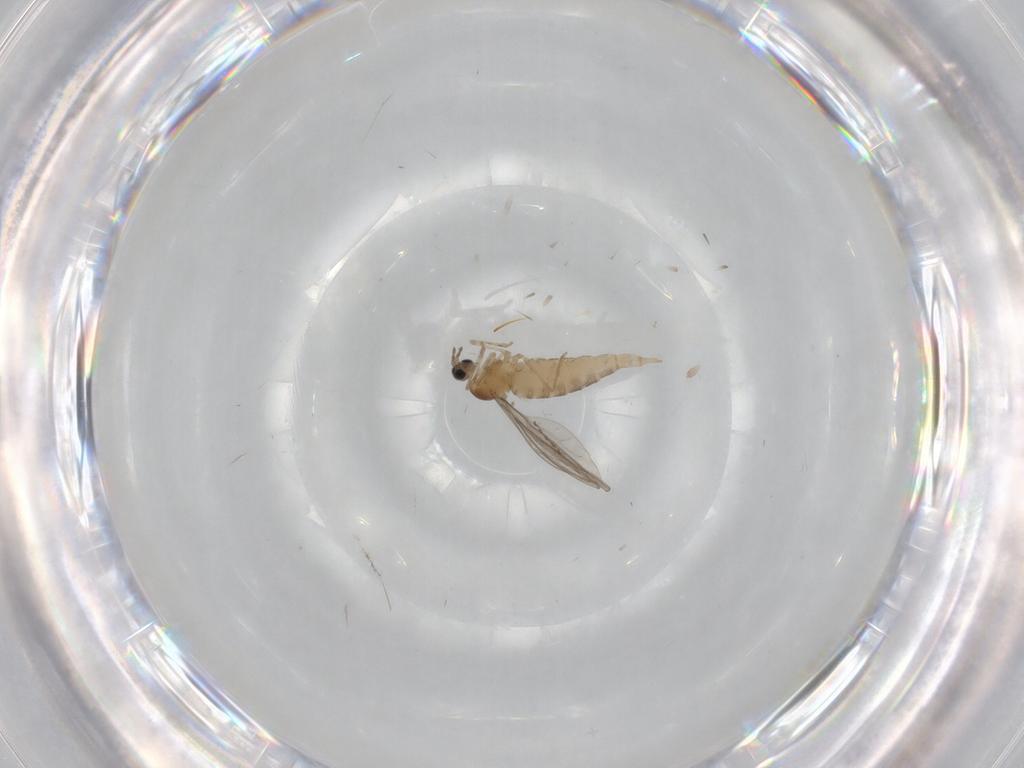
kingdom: Animalia
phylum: Arthropoda
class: Insecta
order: Diptera
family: Cecidomyiidae
